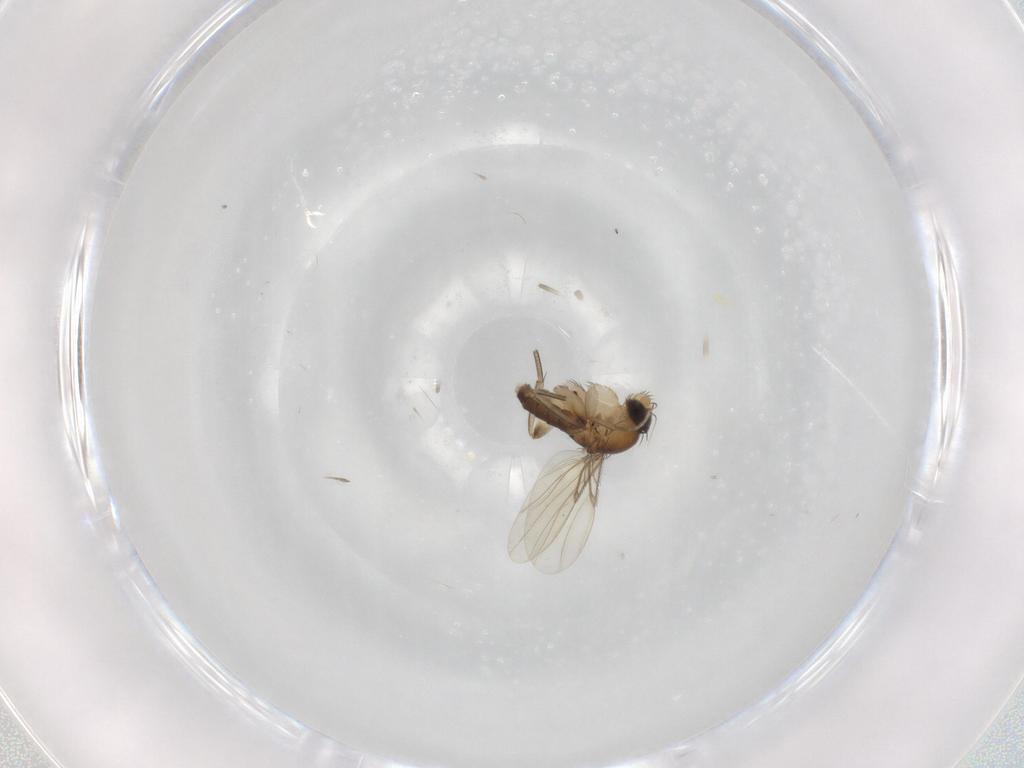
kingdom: Animalia
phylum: Arthropoda
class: Insecta
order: Diptera
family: Phoridae
